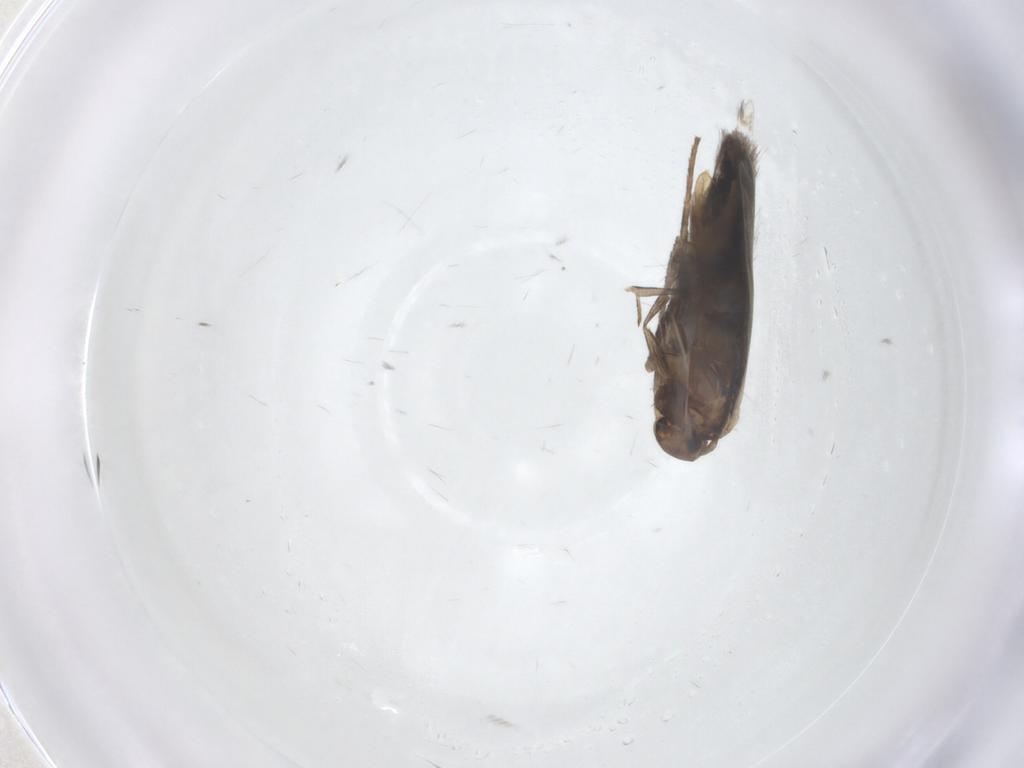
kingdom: Animalia
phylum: Arthropoda
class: Insecta
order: Lepidoptera
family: Elachistidae
